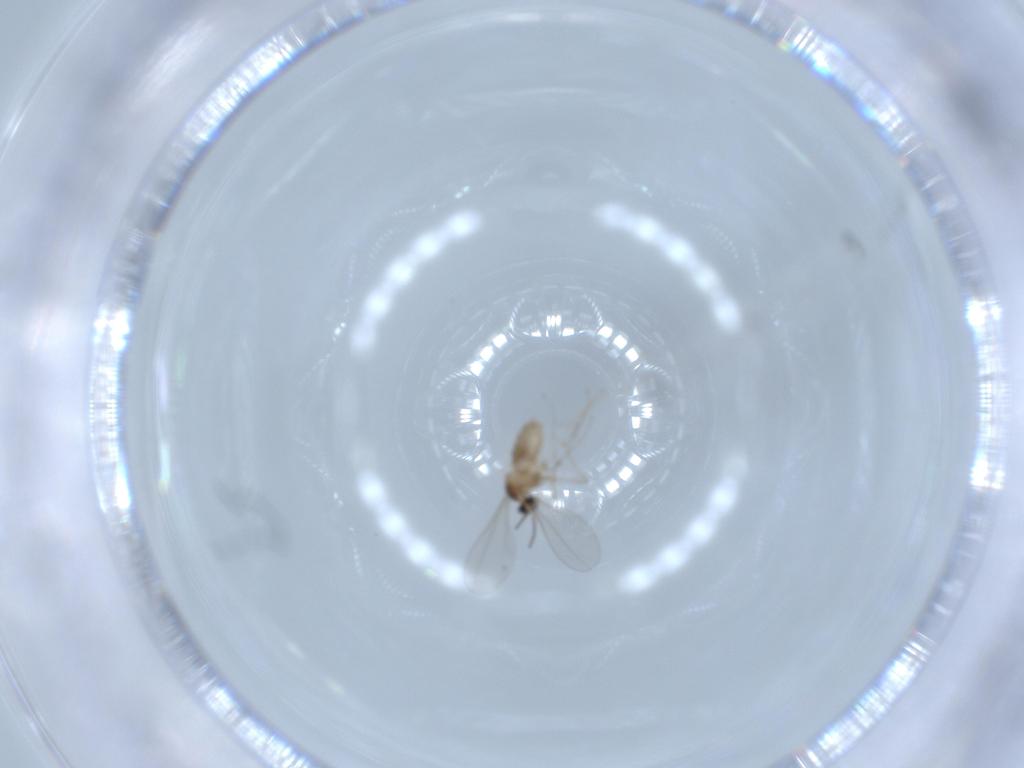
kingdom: Animalia
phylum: Arthropoda
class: Insecta
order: Diptera
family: Cecidomyiidae
